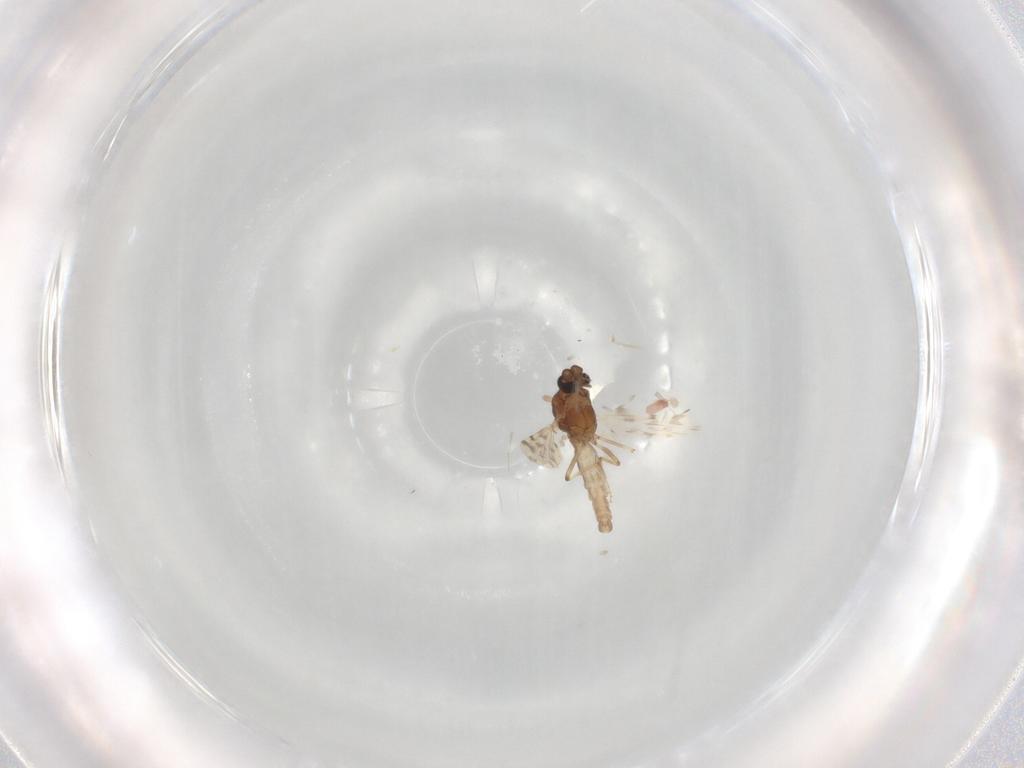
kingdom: Animalia
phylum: Arthropoda
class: Insecta
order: Diptera
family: Ceratopogonidae
